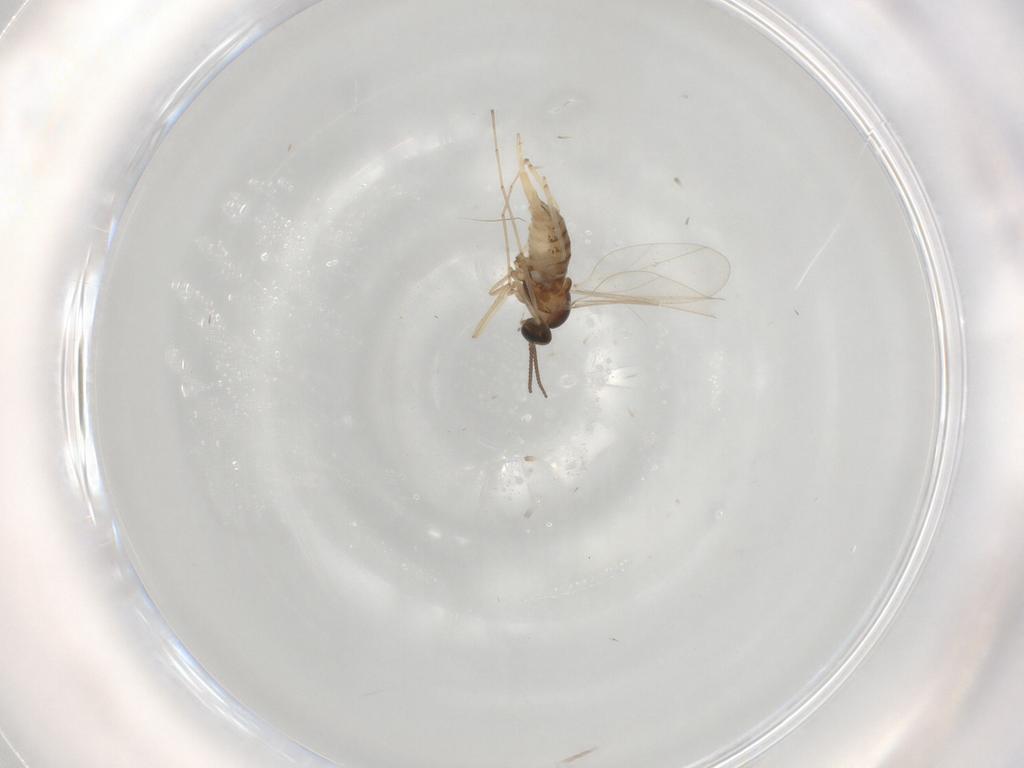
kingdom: Animalia
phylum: Arthropoda
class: Insecta
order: Diptera
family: Cecidomyiidae
